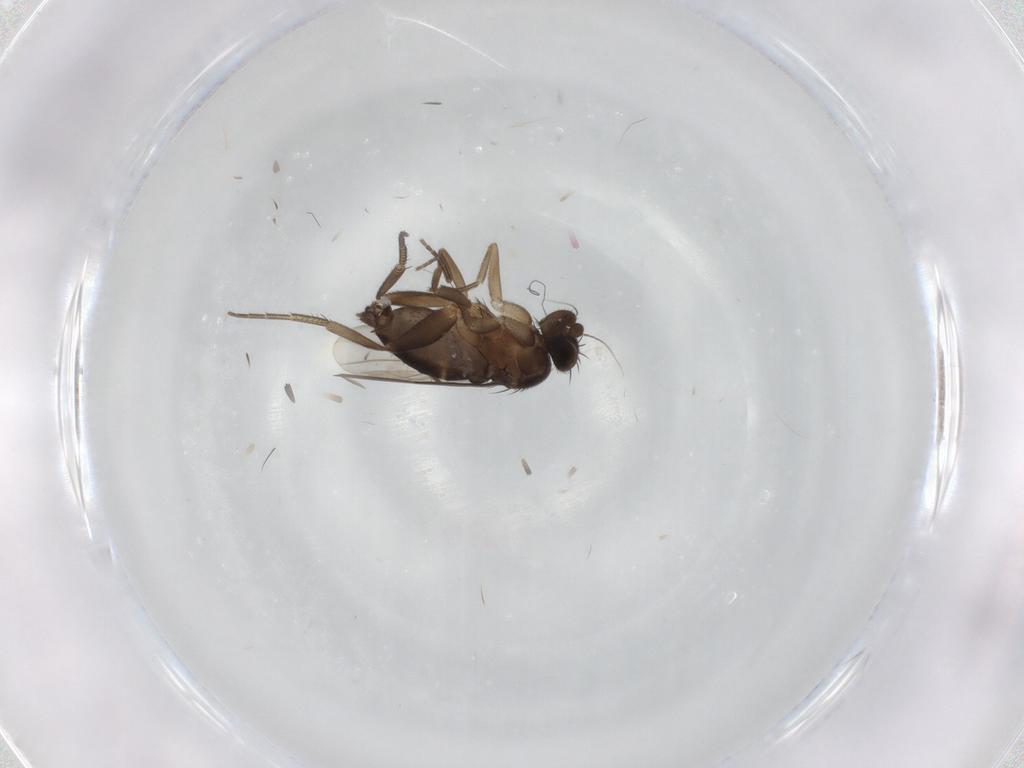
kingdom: Animalia
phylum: Arthropoda
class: Insecta
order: Diptera
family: Phoridae
